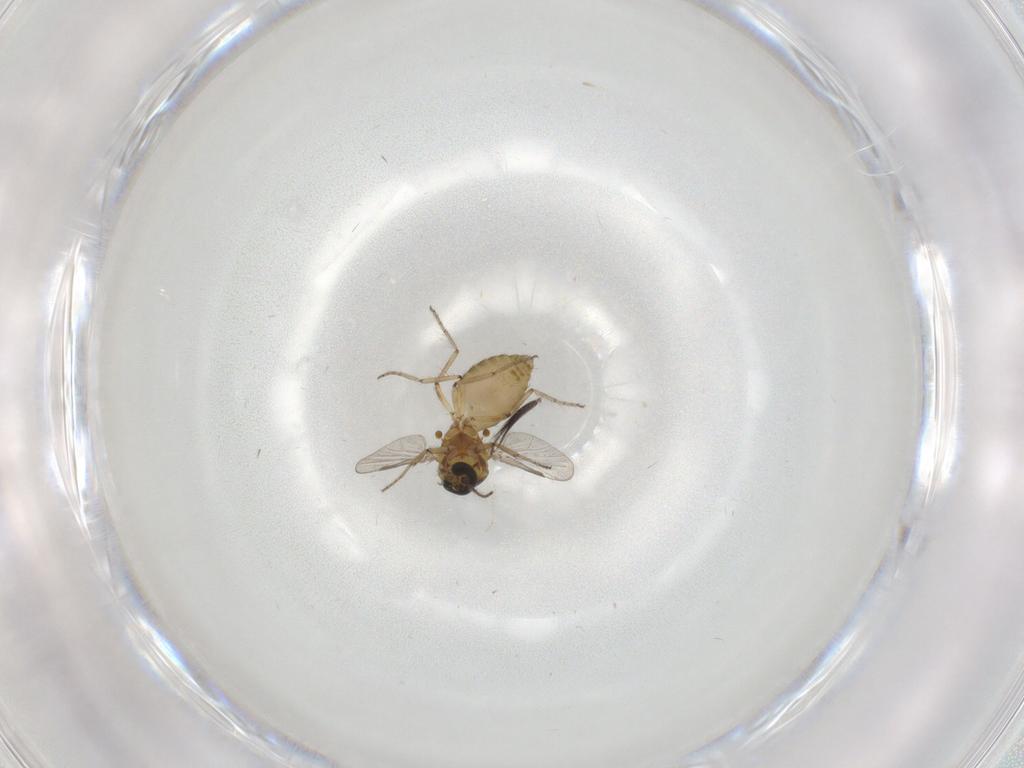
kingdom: Animalia
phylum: Arthropoda
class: Insecta
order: Diptera
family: Ceratopogonidae
